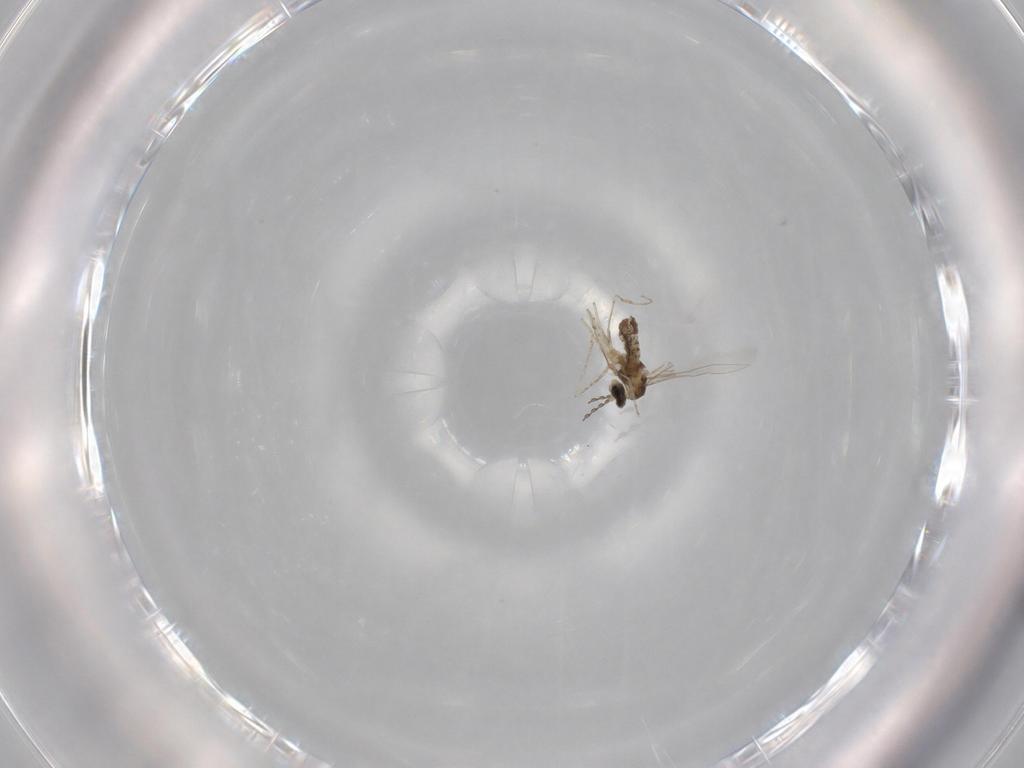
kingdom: Animalia
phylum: Arthropoda
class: Insecta
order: Diptera
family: Cecidomyiidae
